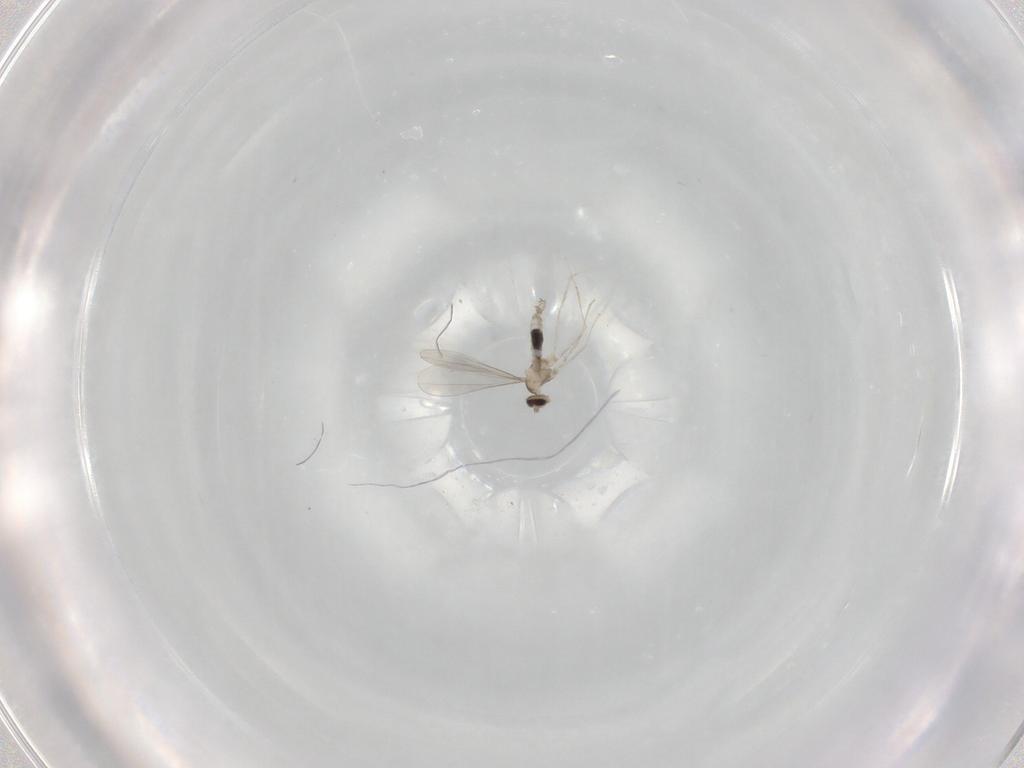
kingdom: Animalia
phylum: Arthropoda
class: Insecta
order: Diptera
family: Cecidomyiidae
